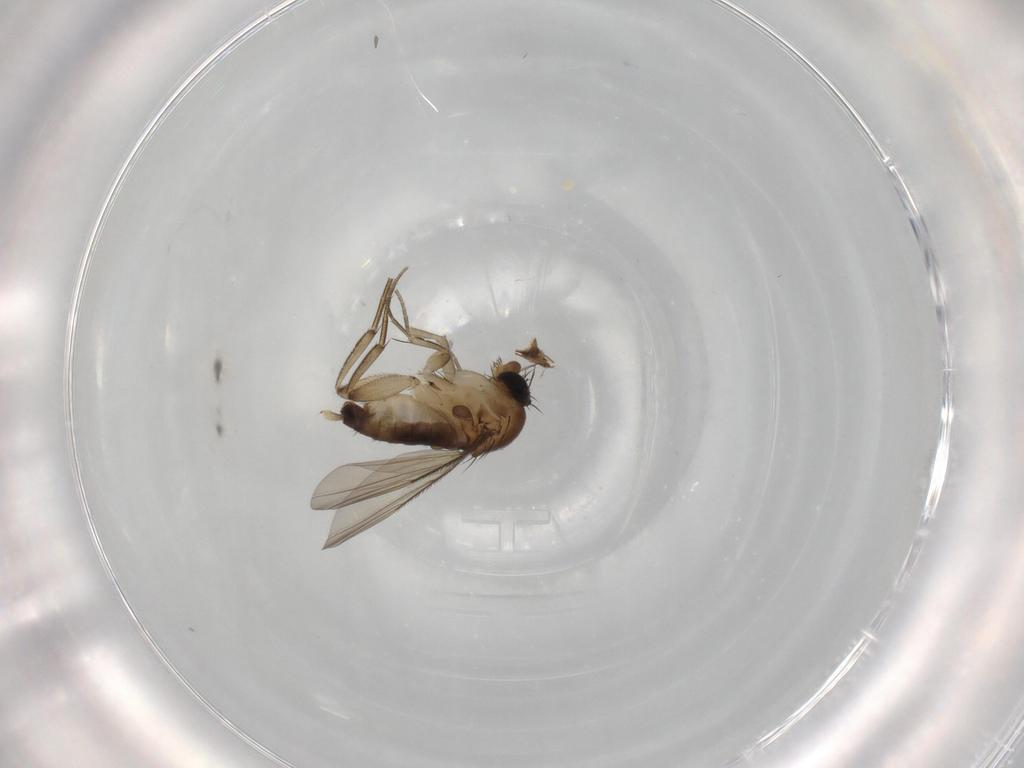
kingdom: Animalia
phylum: Arthropoda
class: Insecta
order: Diptera
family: Phoridae
